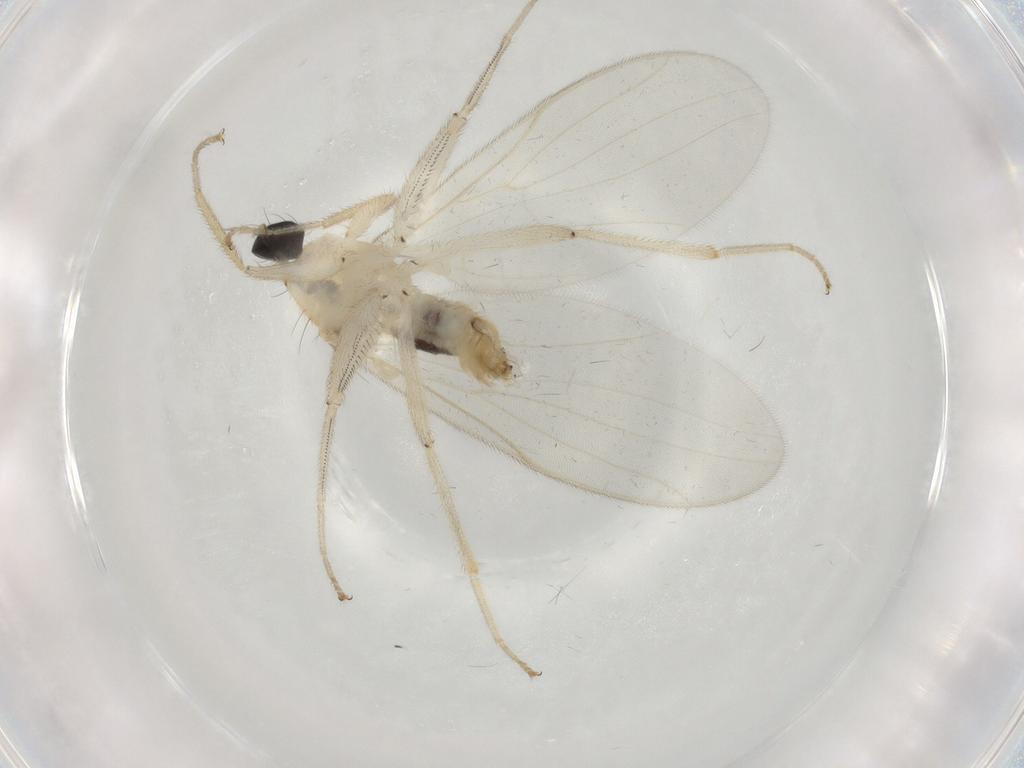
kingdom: Animalia
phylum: Arthropoda
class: Insecta
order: Diptera
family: Hybotidae
